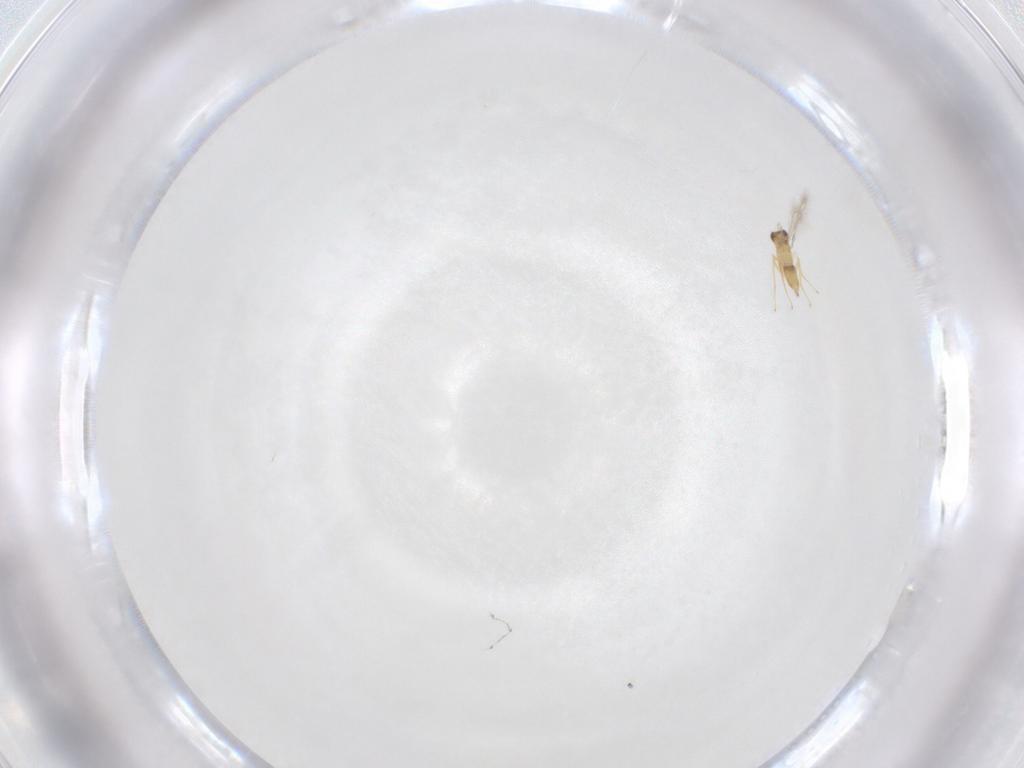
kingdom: Animalia
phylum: Arthropoda
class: Insecta
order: Hymenoptera
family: Mymaridae
